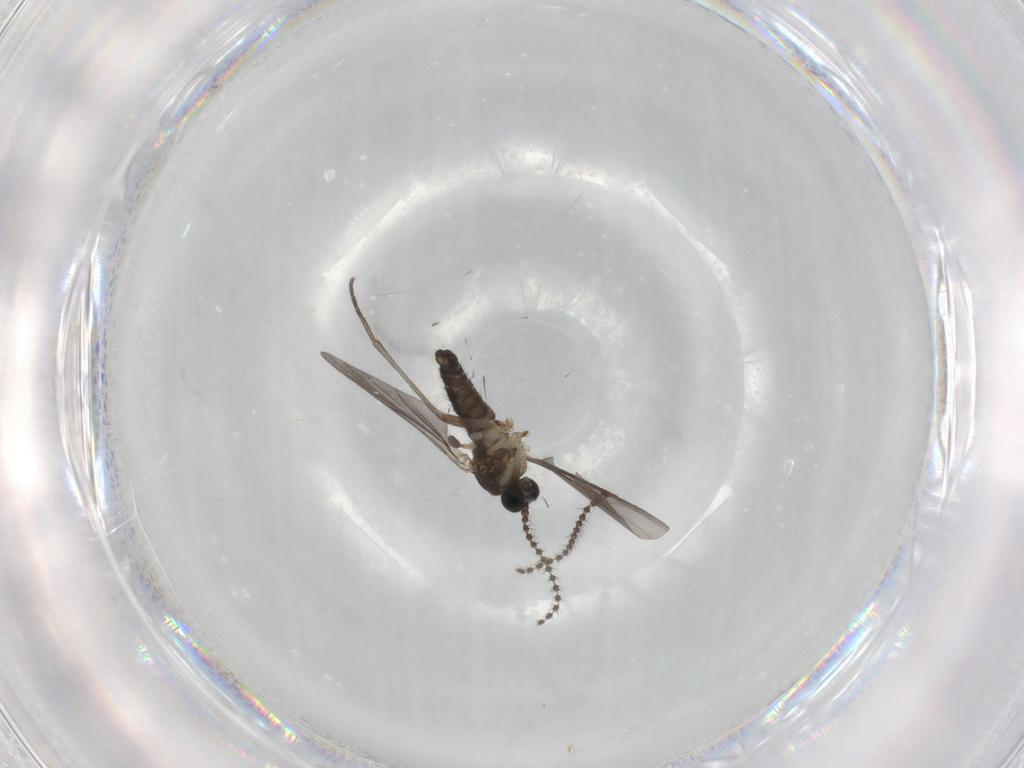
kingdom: Animalia
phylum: Arthropoda
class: Insecta
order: Diptera
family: Sciaridae
